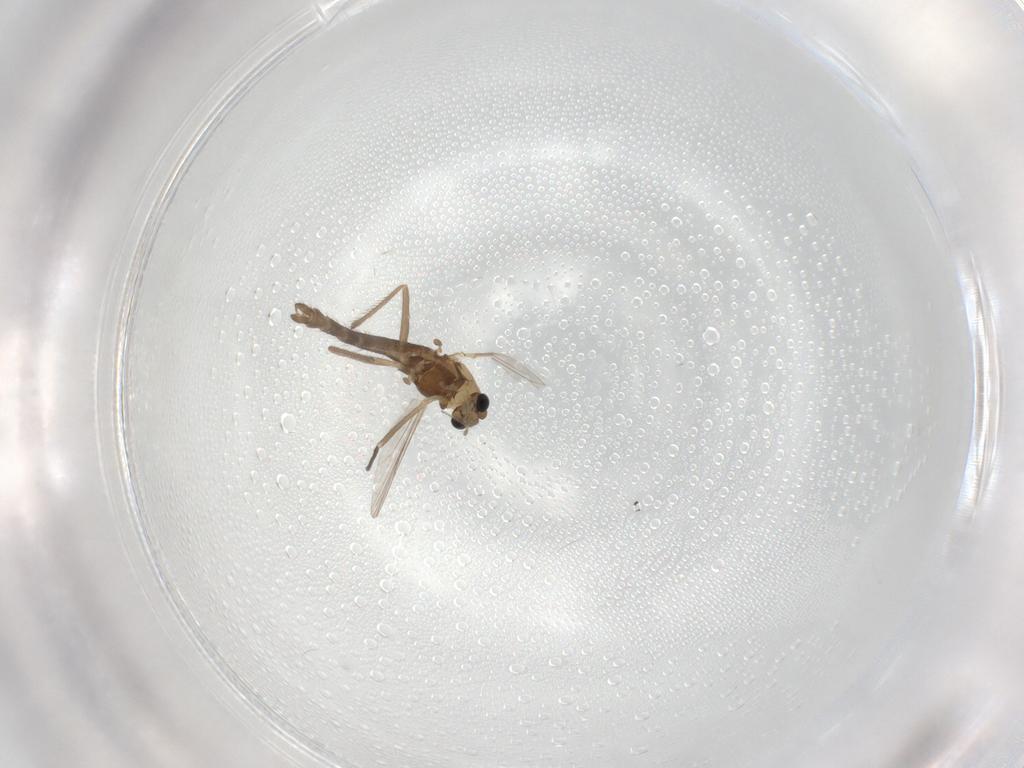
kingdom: Animalia
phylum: Arthropoda
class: Insecta
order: Diptera
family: Chironomidae
